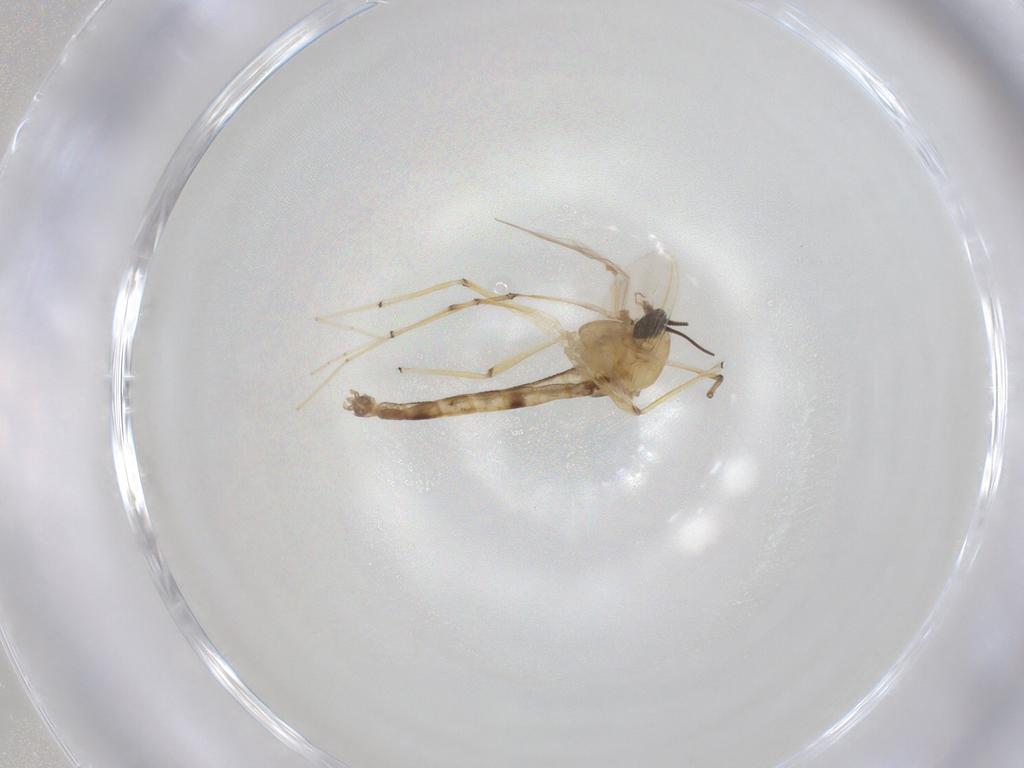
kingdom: Animalia
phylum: Arthropoda
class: Insecta
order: Diptera
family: Chironomidae
